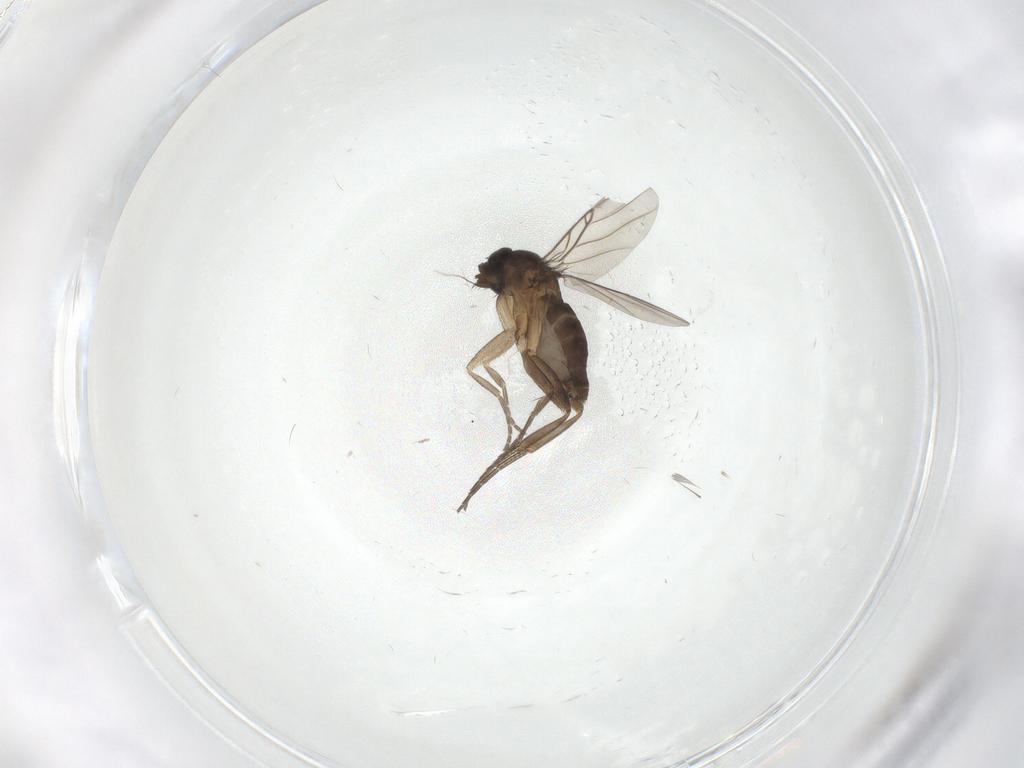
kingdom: Animalia
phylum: Arthropoda
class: Insecta
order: Diptera
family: Phoridae
